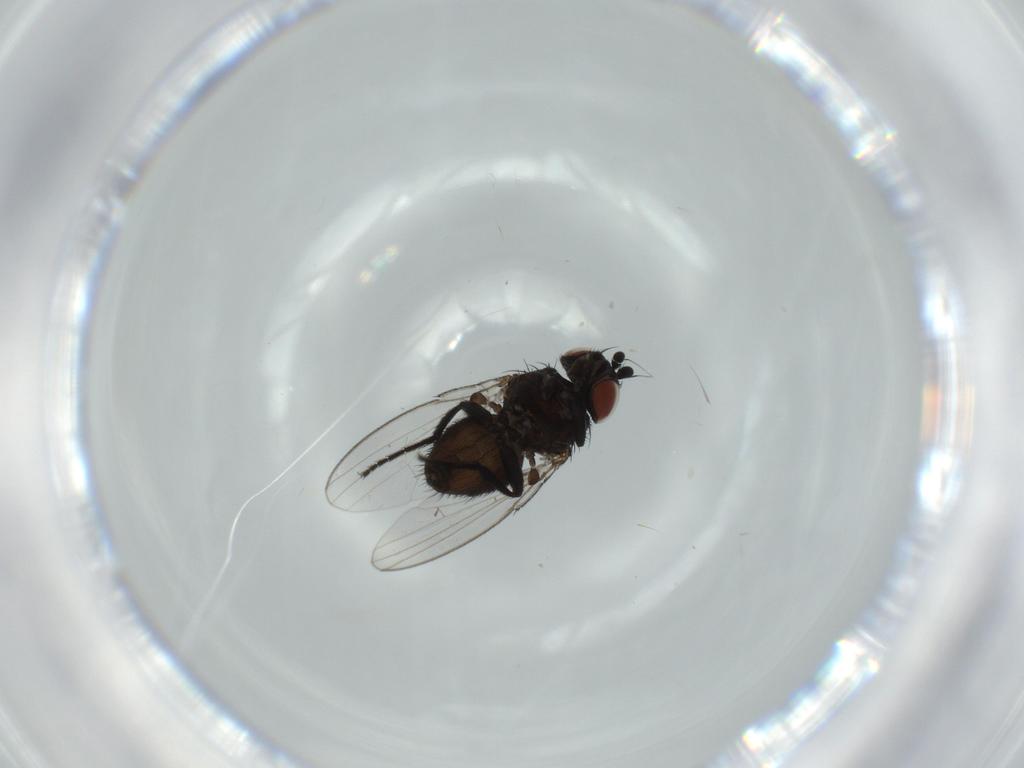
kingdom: Animalia
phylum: Arthropoda
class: Insecta
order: Diptera
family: Milichiidae
